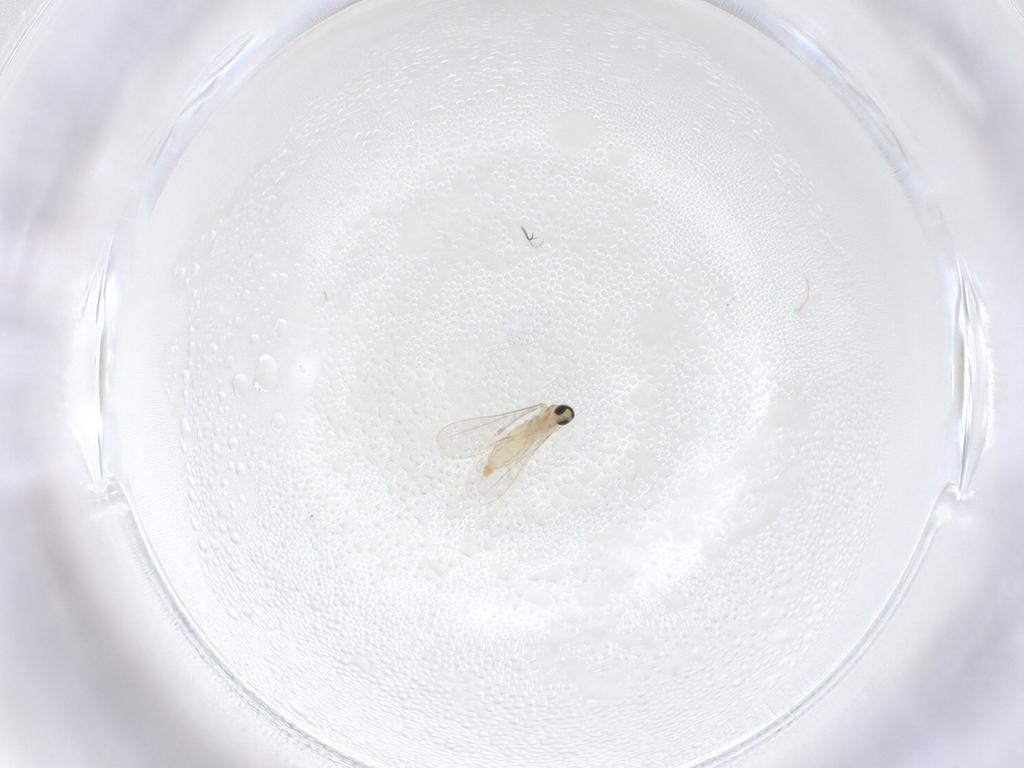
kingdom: Animalia
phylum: Arthropoda
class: Insecta
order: Diptera
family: Cecidomyiidae
